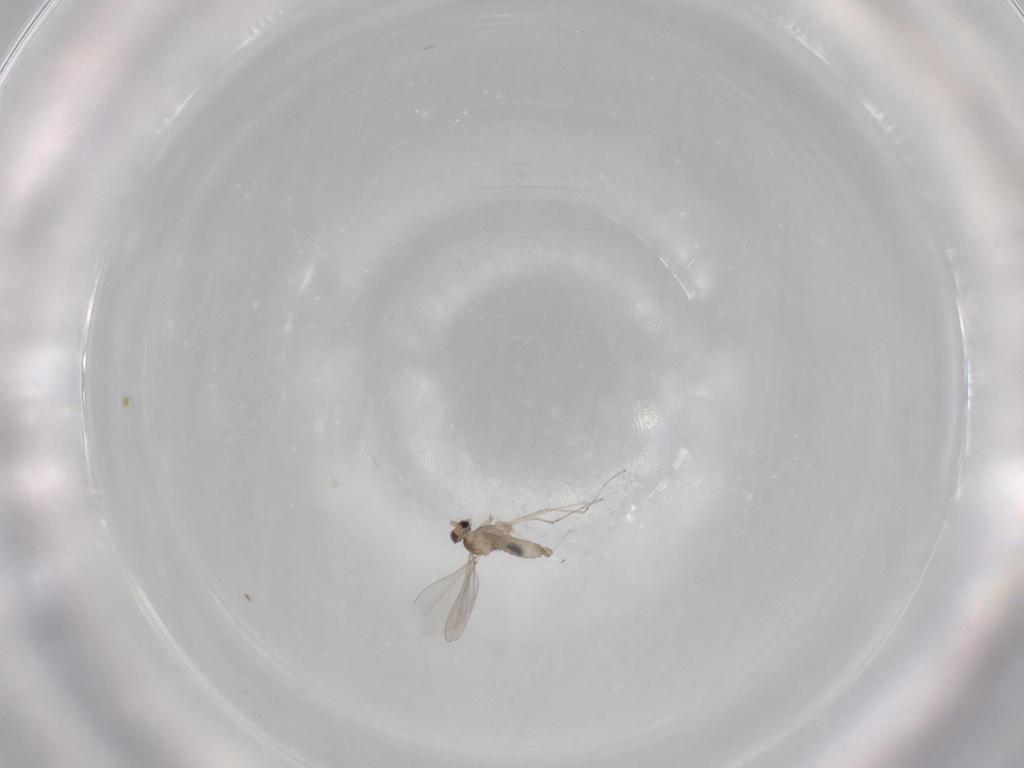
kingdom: Animalia
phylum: Arthropoda
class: Insecta
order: Diptera
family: Cecidomyiidae
